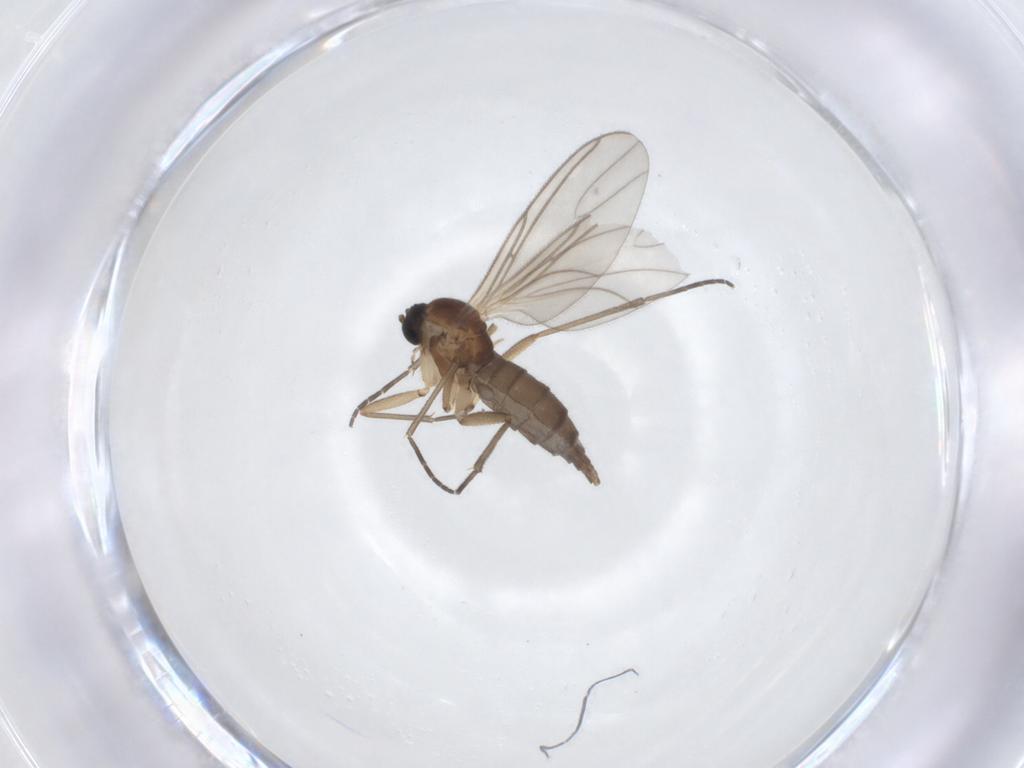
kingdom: Animalia
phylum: Arthropoda
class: Insecta
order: Diptera
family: Sciaridae
